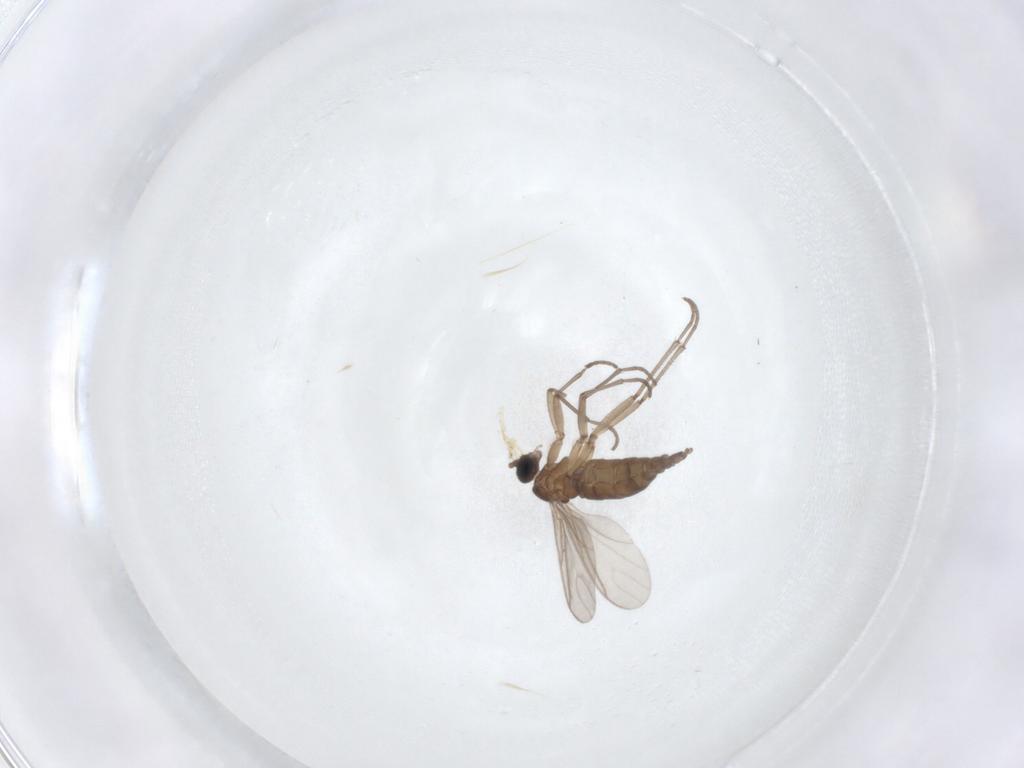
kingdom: Animalia
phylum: Arthropoda
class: Insecta
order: Diptera
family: Sciaridae
